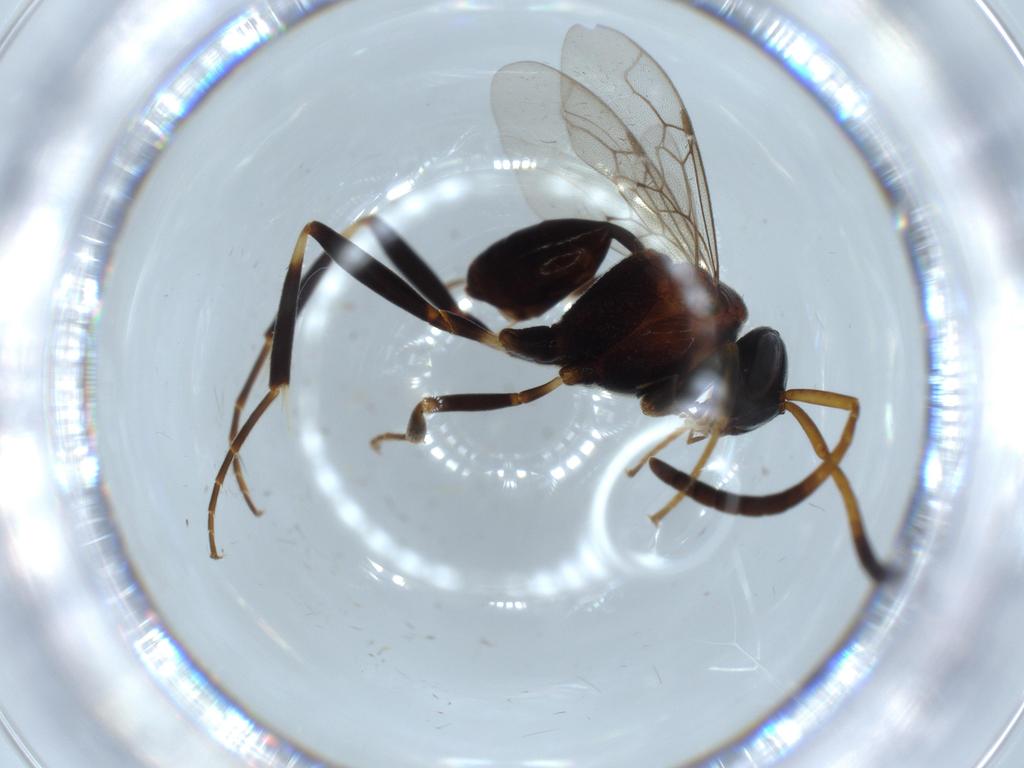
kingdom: Animalia
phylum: Arthropoda
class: Insecta
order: Hymenoptera
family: Evaniidae
